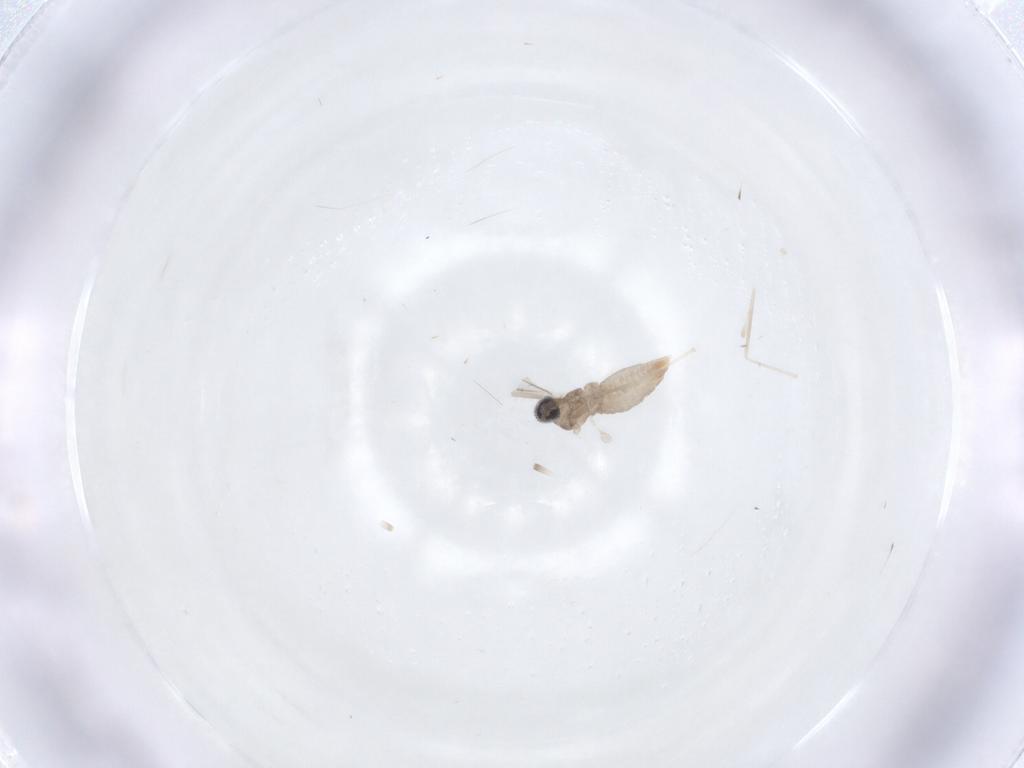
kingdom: Animalia
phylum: Arthropoda
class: Insecta
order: Diptera
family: Cecidomyiidae
